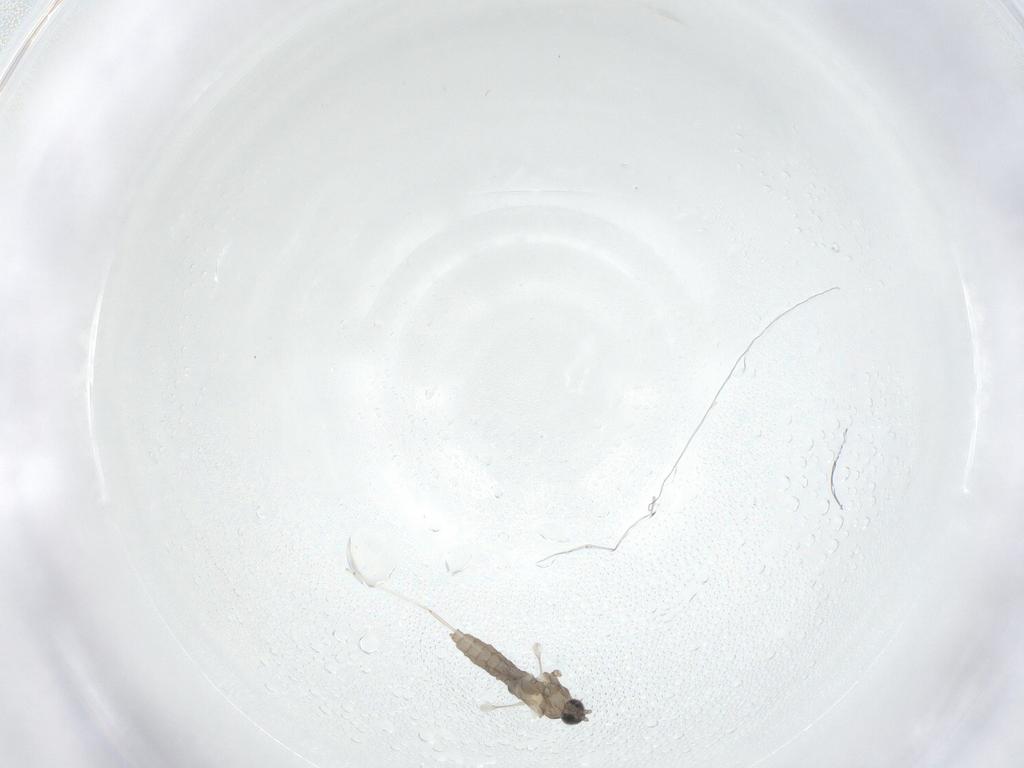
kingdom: Animalia
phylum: Arthropoda
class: Insecta
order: Diptera
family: Cecidomyiidae
